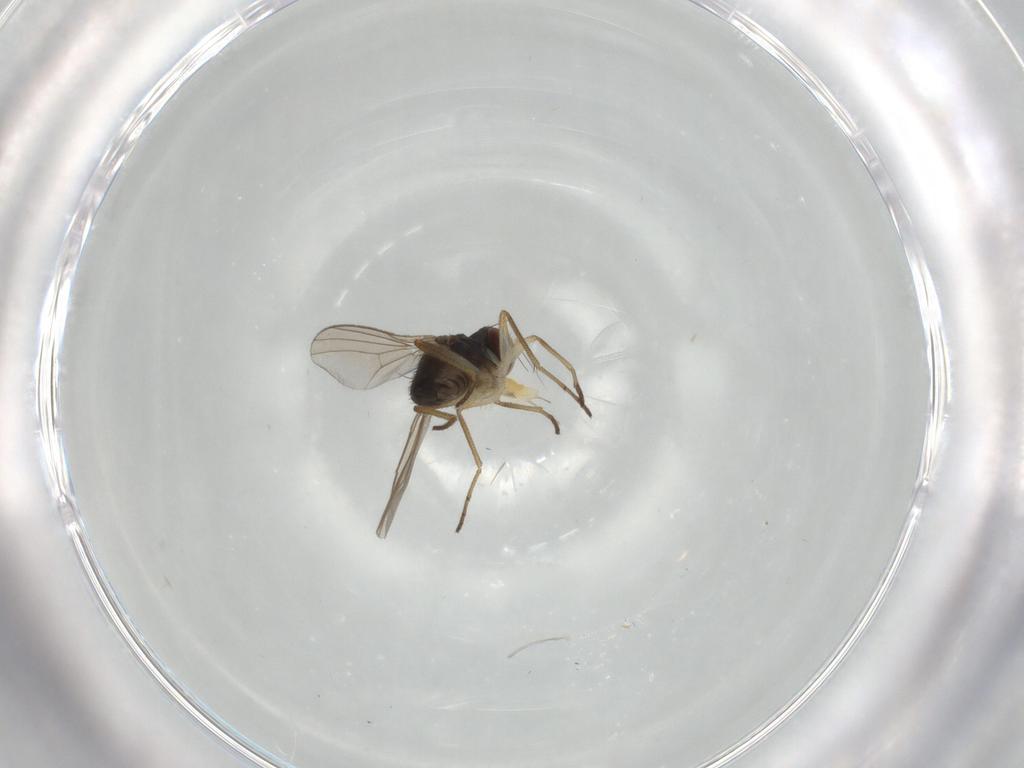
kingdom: Animalia
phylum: Arthropoda
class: Insecta
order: Diptera
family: Dolichopodidae
